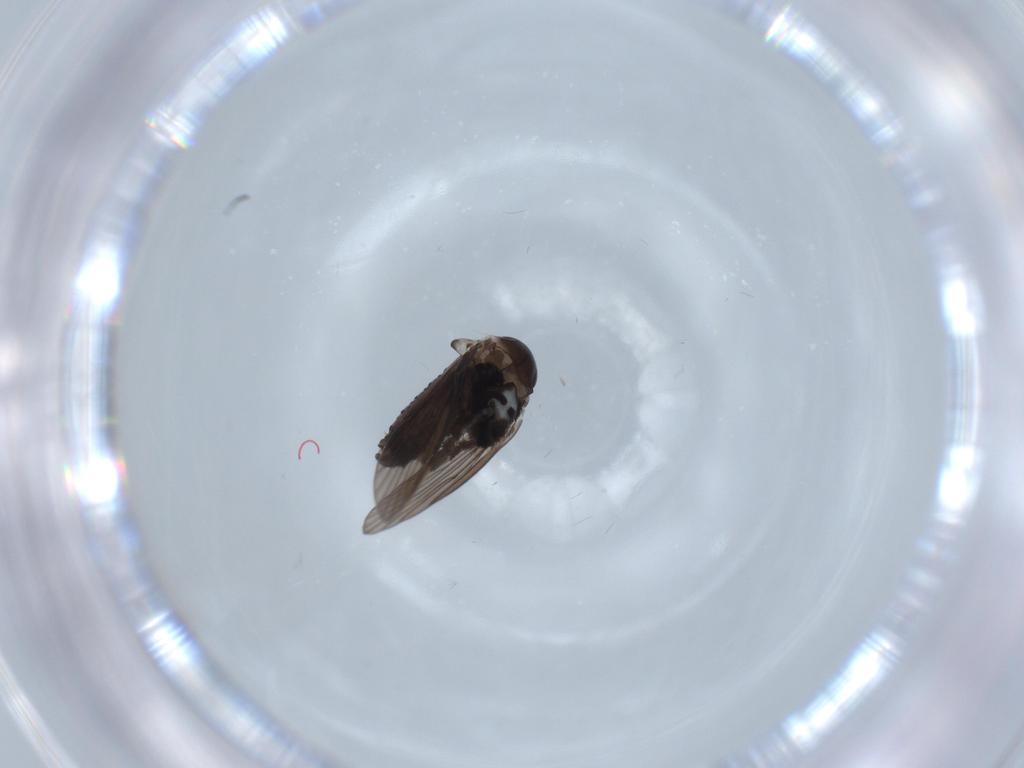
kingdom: Animalia
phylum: Arthropoda
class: Insecta
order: Diptera
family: Psychodidae
